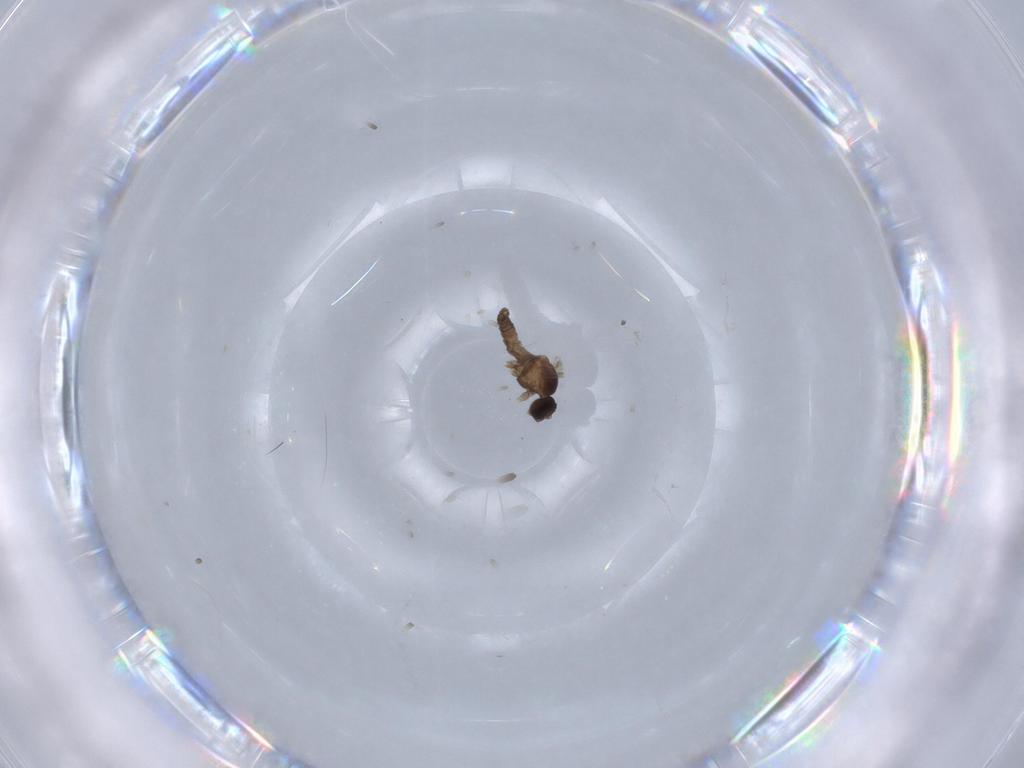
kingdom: Animalia
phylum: Arthropoda
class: Insecta
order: Diptera
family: Cecidomyiidae
